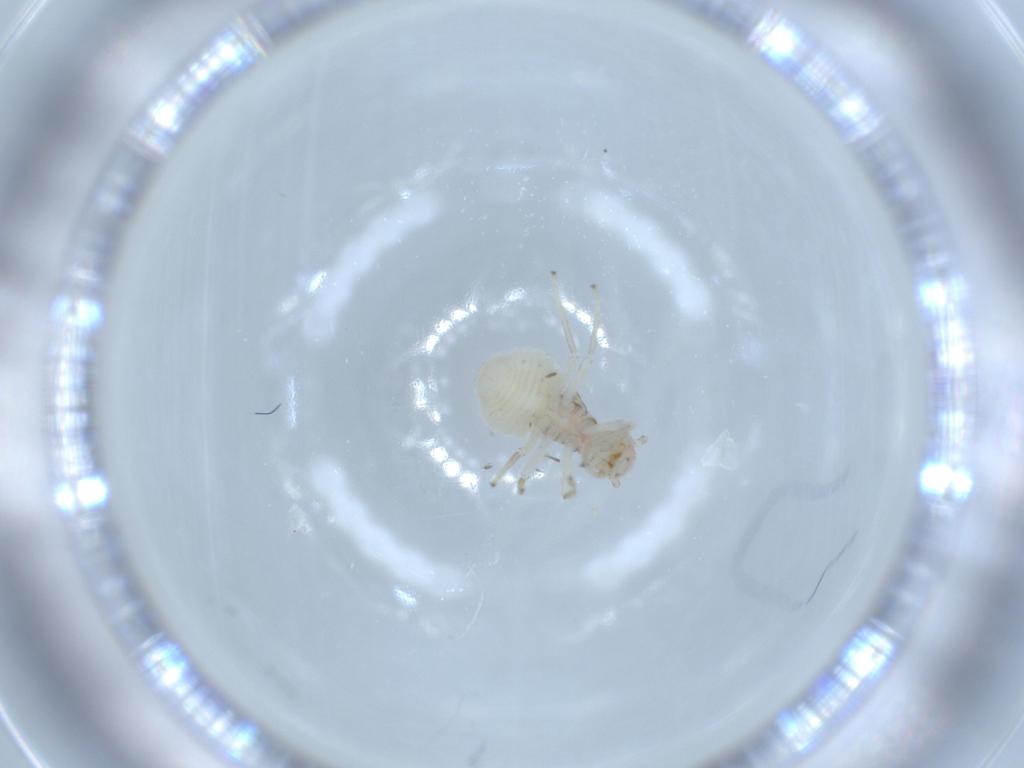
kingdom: Animalia
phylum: Arthropoda
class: Insecta
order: Psocodea
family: Amphipsocidae
